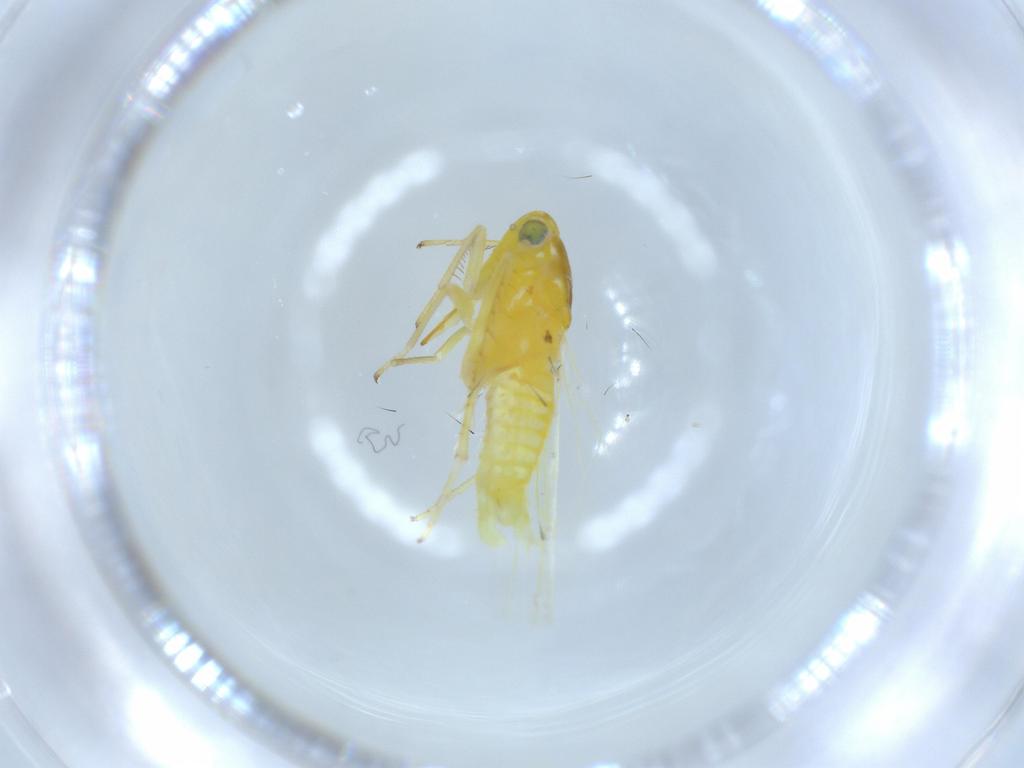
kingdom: Animalia
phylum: Arthropoda
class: Insecta
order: Hemiptera
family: Cicadellidae
